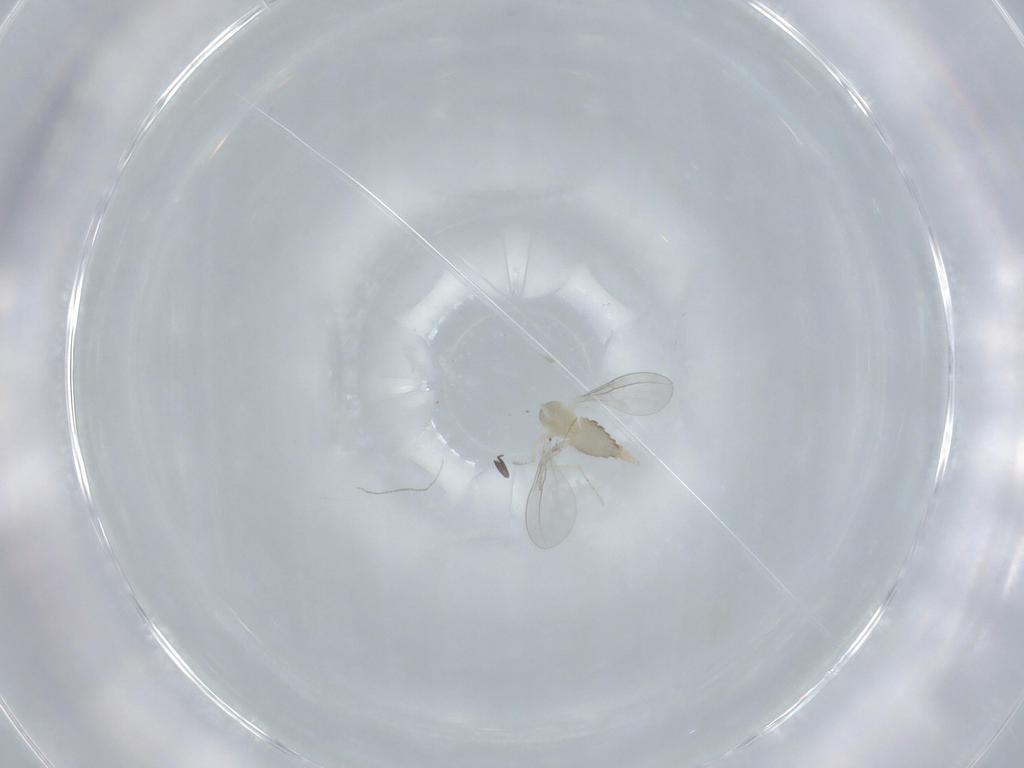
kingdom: Animalia
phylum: Arthropoda
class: Insecta
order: Diptera
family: Cecidomyiidae
